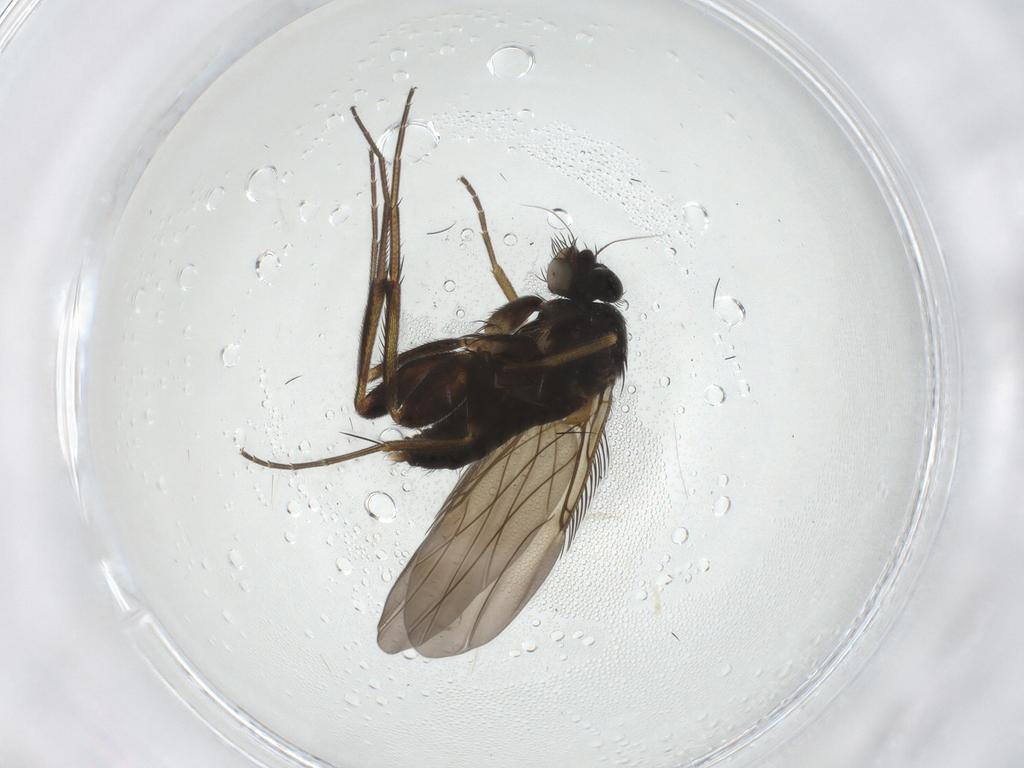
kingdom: Animalia
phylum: Arthropoda
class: Insecta
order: Diptera
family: Phoridae
